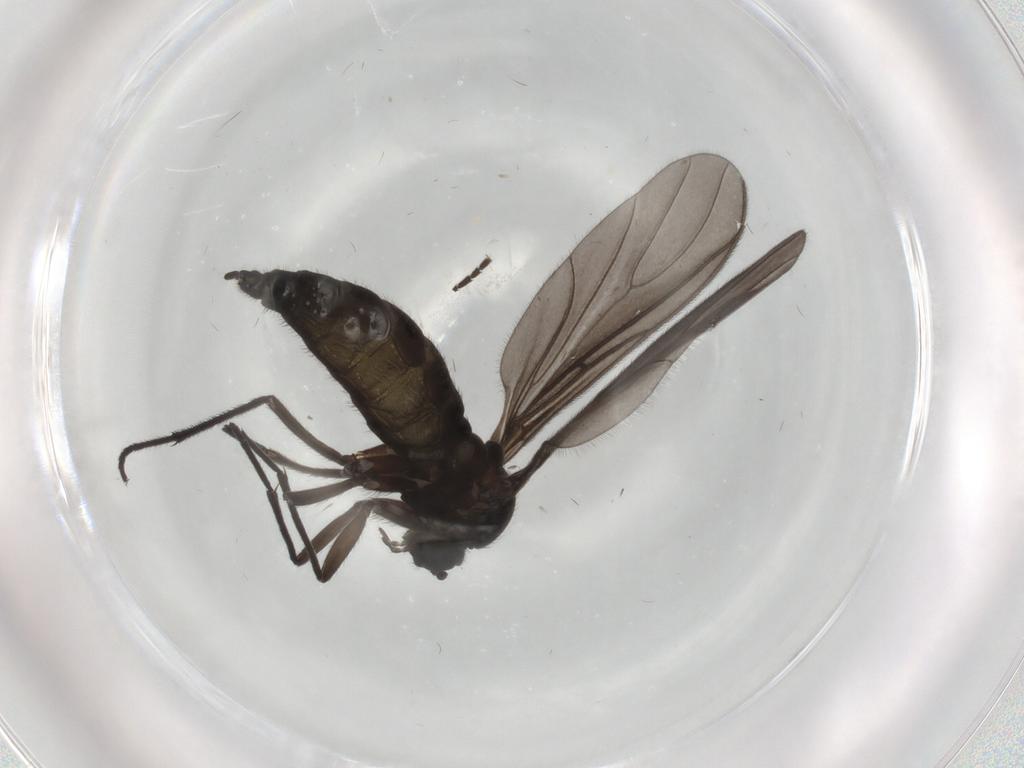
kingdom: Animalia
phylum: Arthropoda
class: Insecta
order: Diptera
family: Sciaridae
